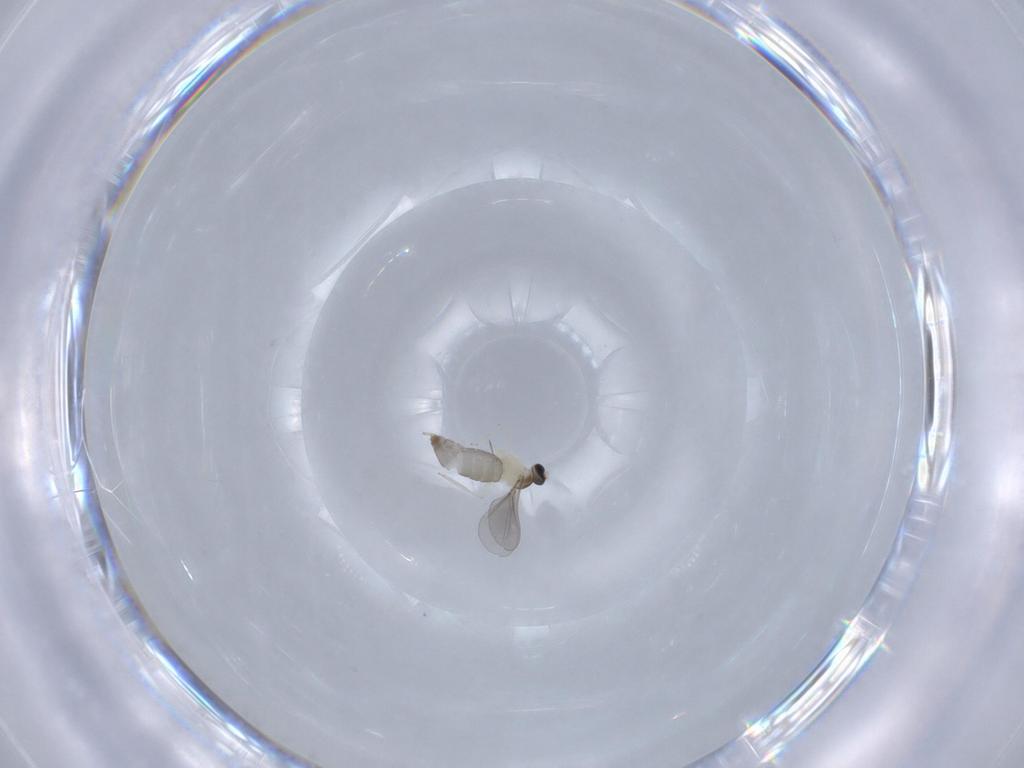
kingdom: Animalia
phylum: Arthropoda
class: Insecta
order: Diptera
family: Cecidomyiidae
